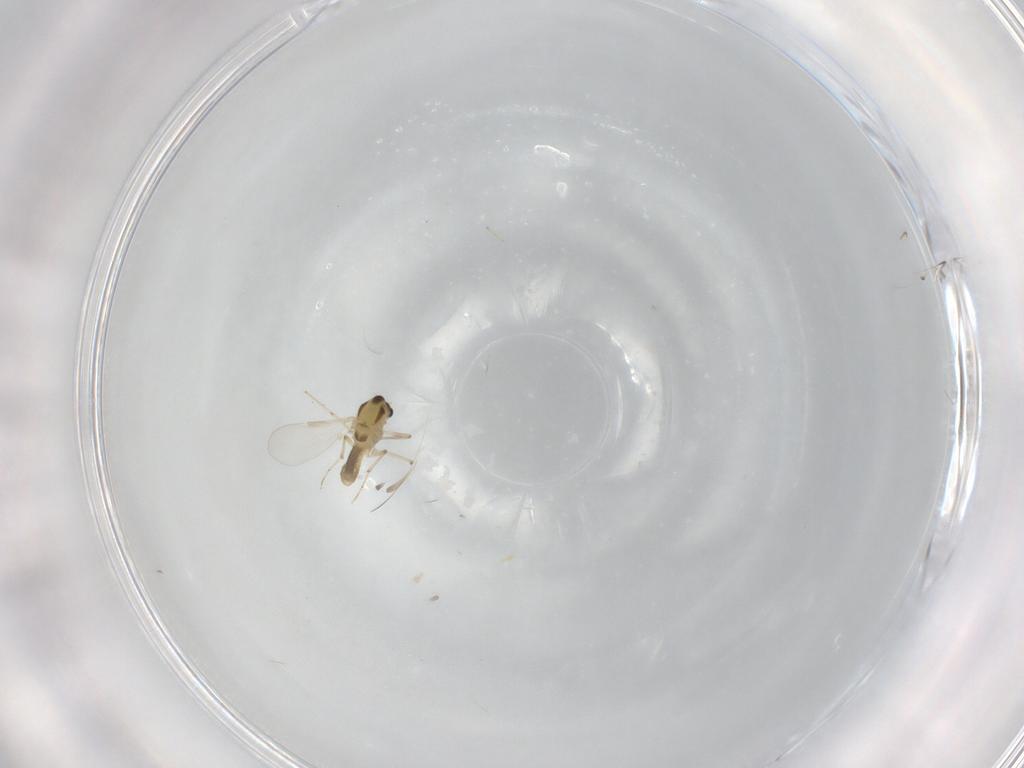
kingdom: Animalia
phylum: Arthropoda
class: Insecta
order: Diptera
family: Chironomidae
